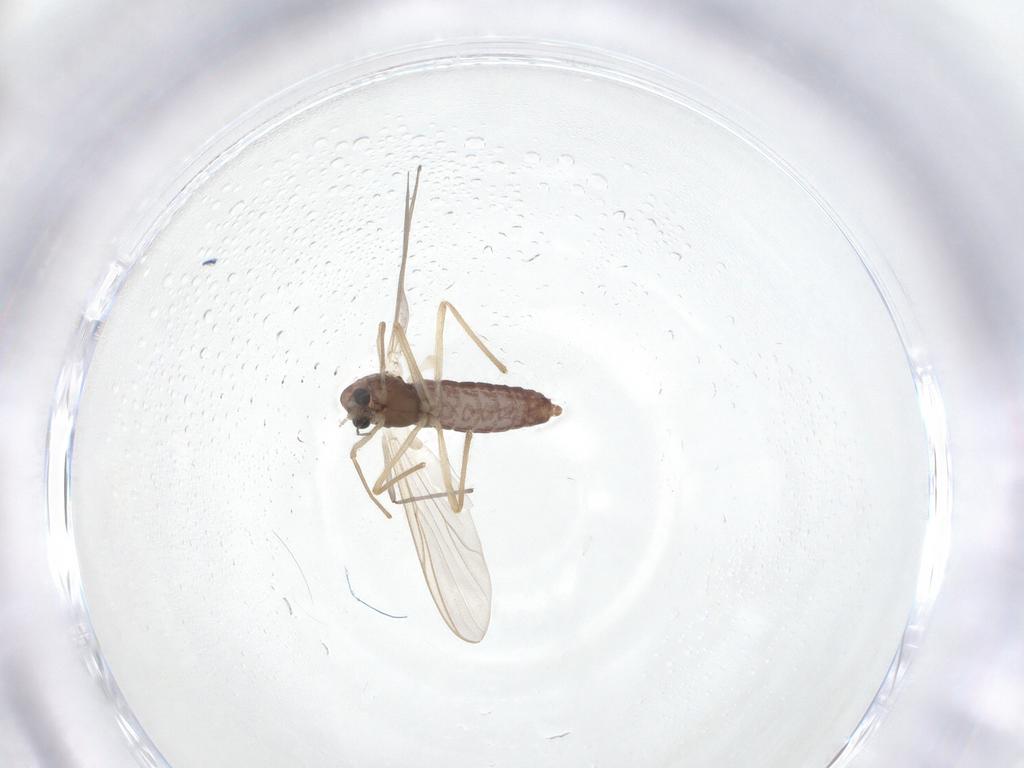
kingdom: Animalia
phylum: Arthropoda
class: Insecta
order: Diptera
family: Chironomidae
